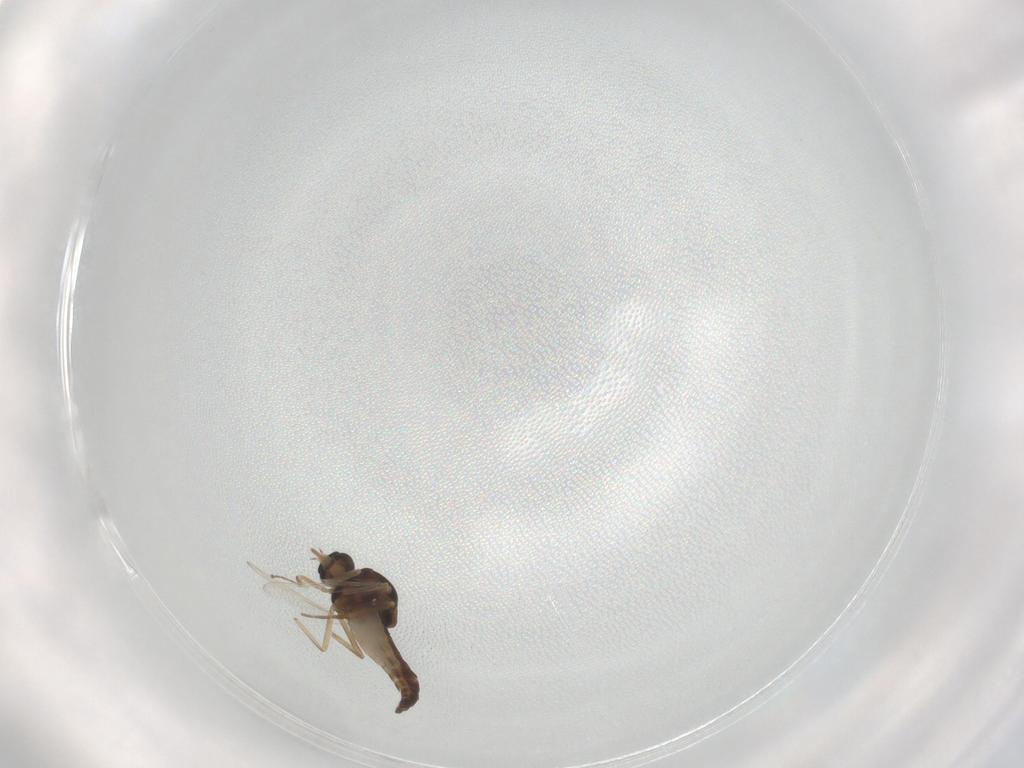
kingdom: Animalia
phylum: Arthropoda
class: Insecta
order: Diptera
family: Ceratopogonidae
